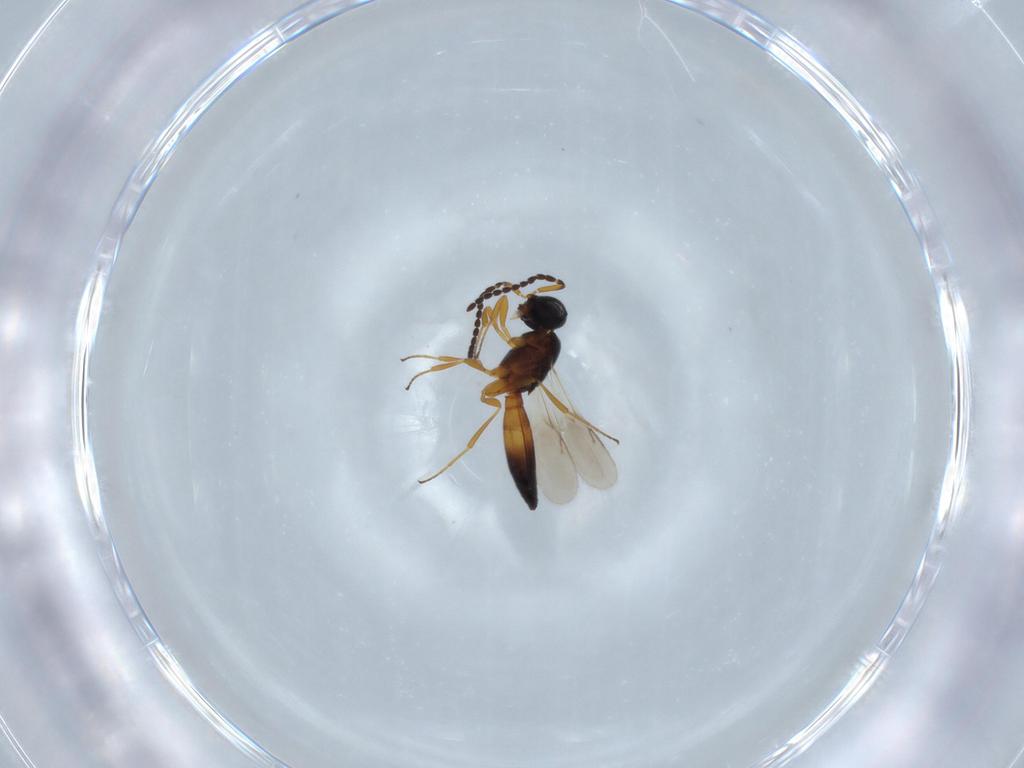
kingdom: Animalia
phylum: Arthropoda
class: Insecta
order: Hymenoptera
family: Scelionidae
